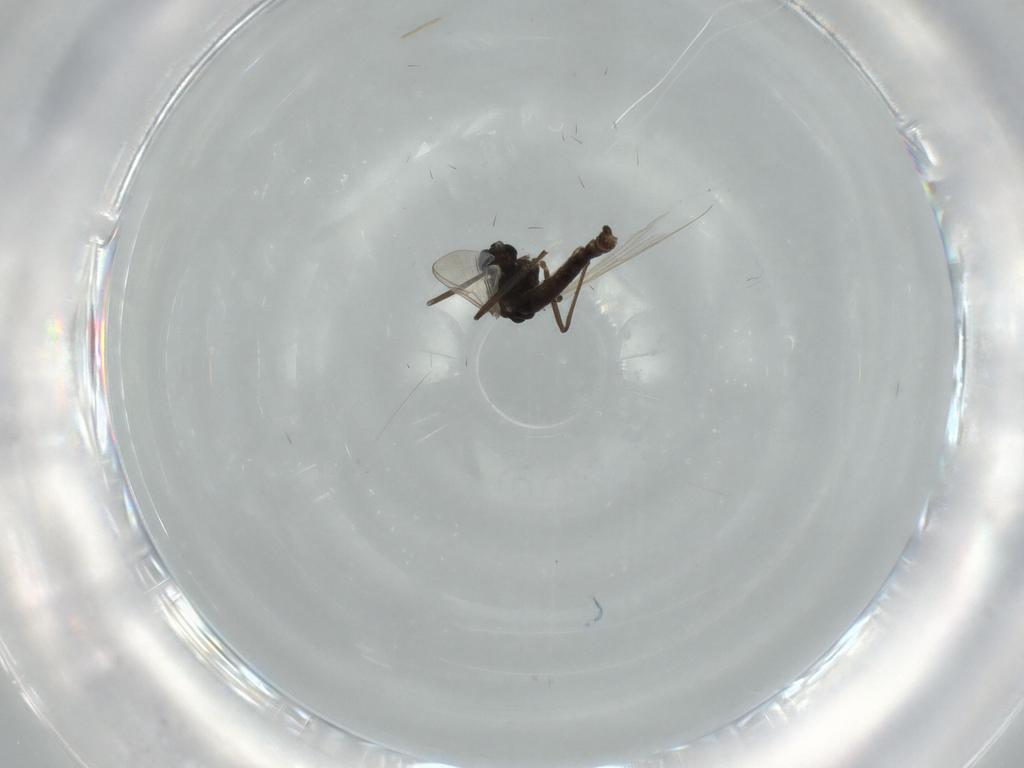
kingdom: Animalia
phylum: Arthropoda
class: Insecta
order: Diptera
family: Chironomidae
